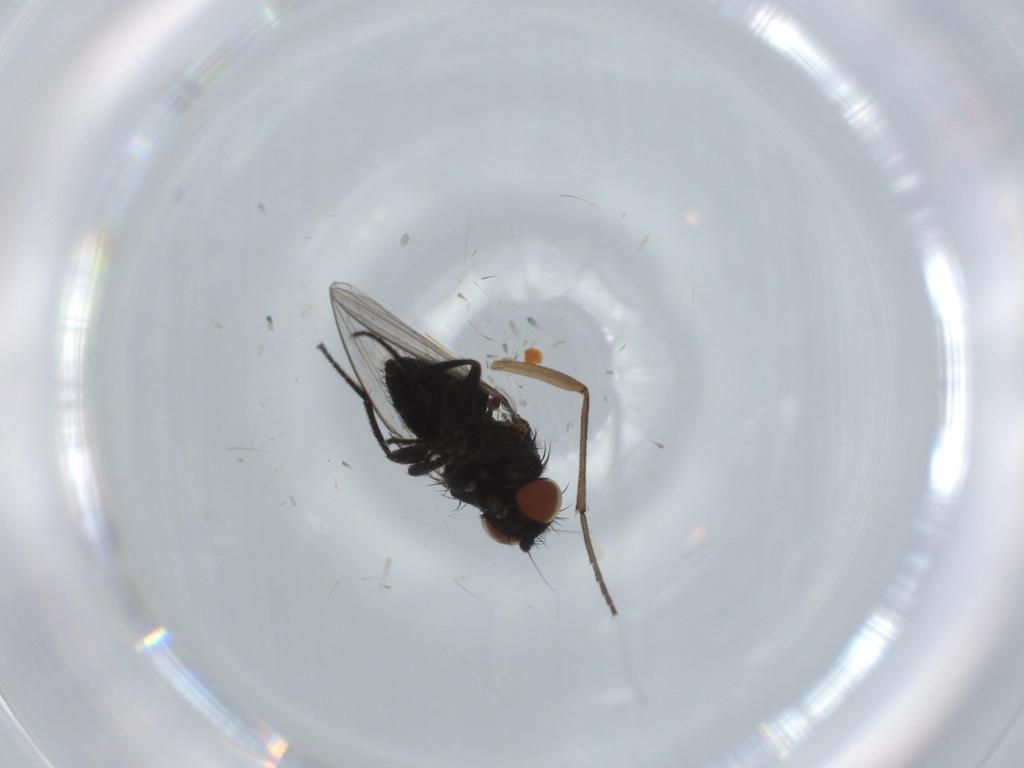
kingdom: Animalia
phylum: Arthropoda
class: Insecta
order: Diptera
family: Milichiidae
